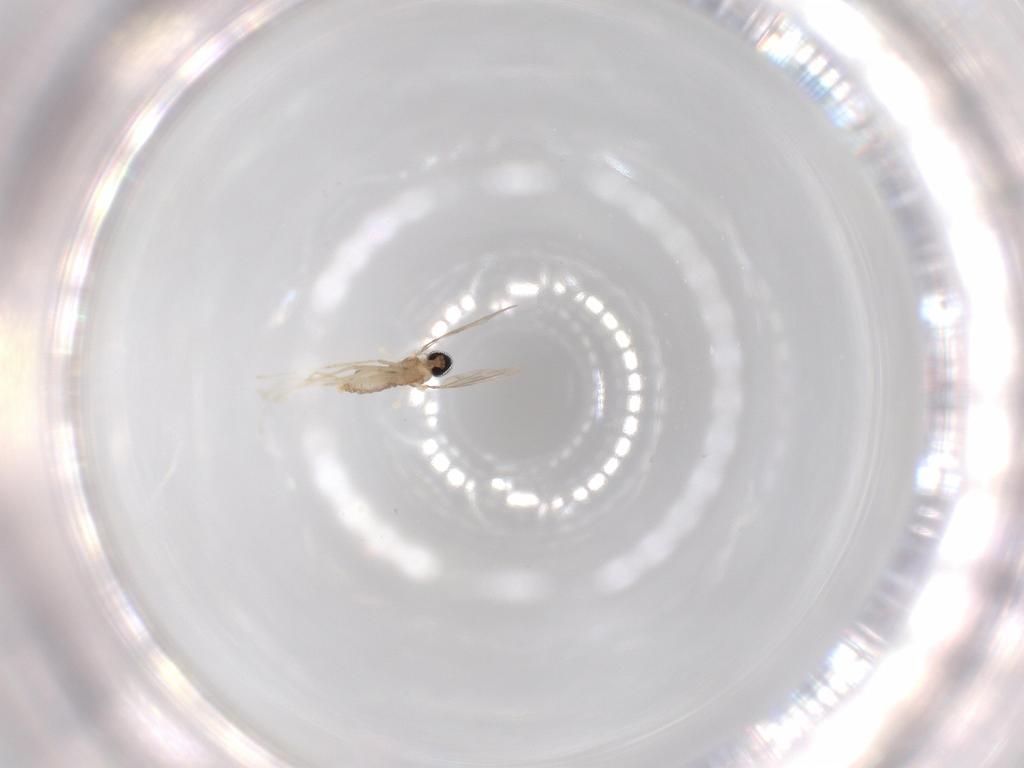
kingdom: Animalia
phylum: Arthropoda
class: Insecta
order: Diptera
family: Cecidomyiidae
